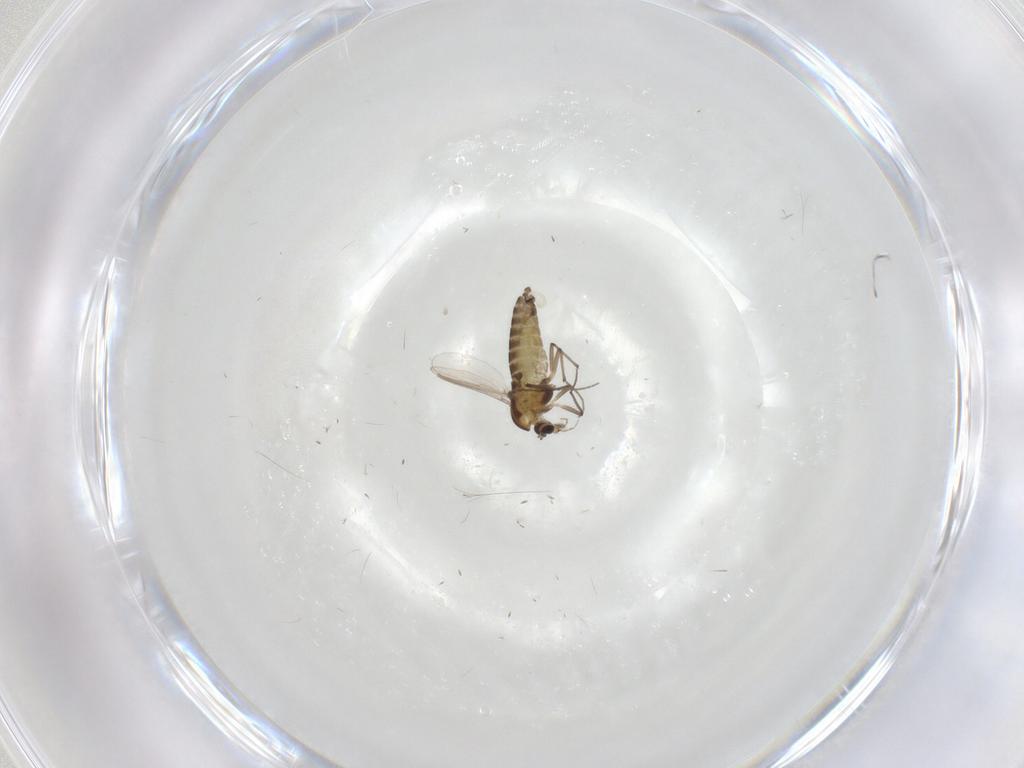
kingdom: Animalia
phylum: Arthropoda
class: Insecta
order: Diptera
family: Chironomidae
